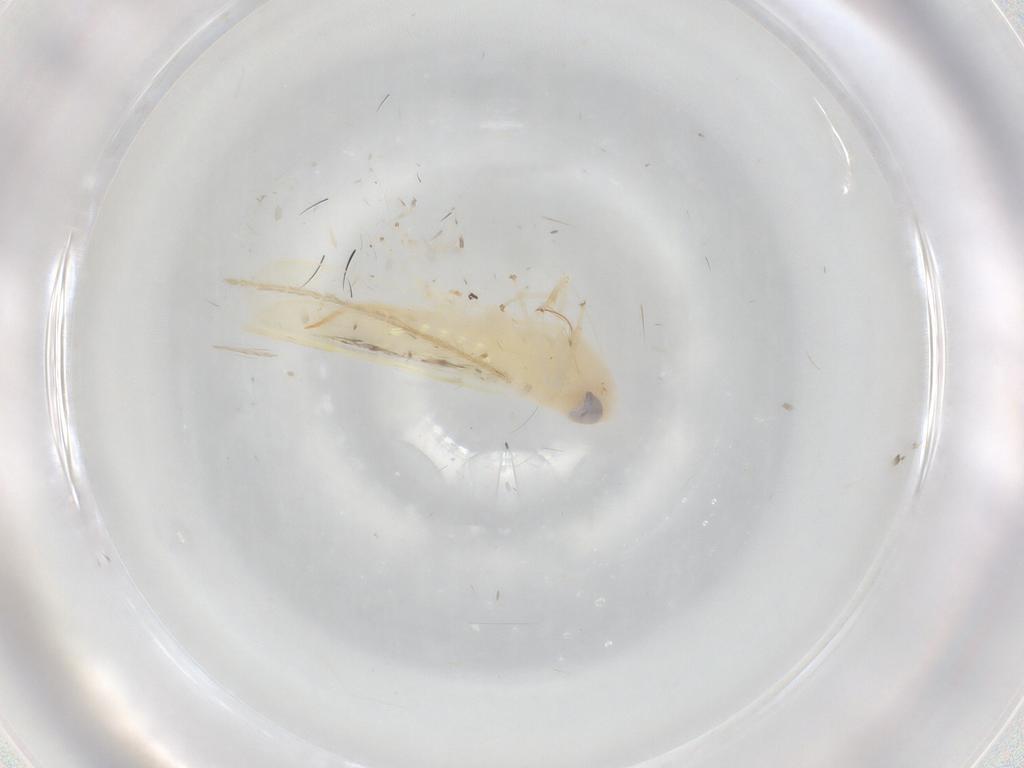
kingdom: Animalia
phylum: Arthropoda
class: Insecta
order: Hemiptera
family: Cicadellidae
